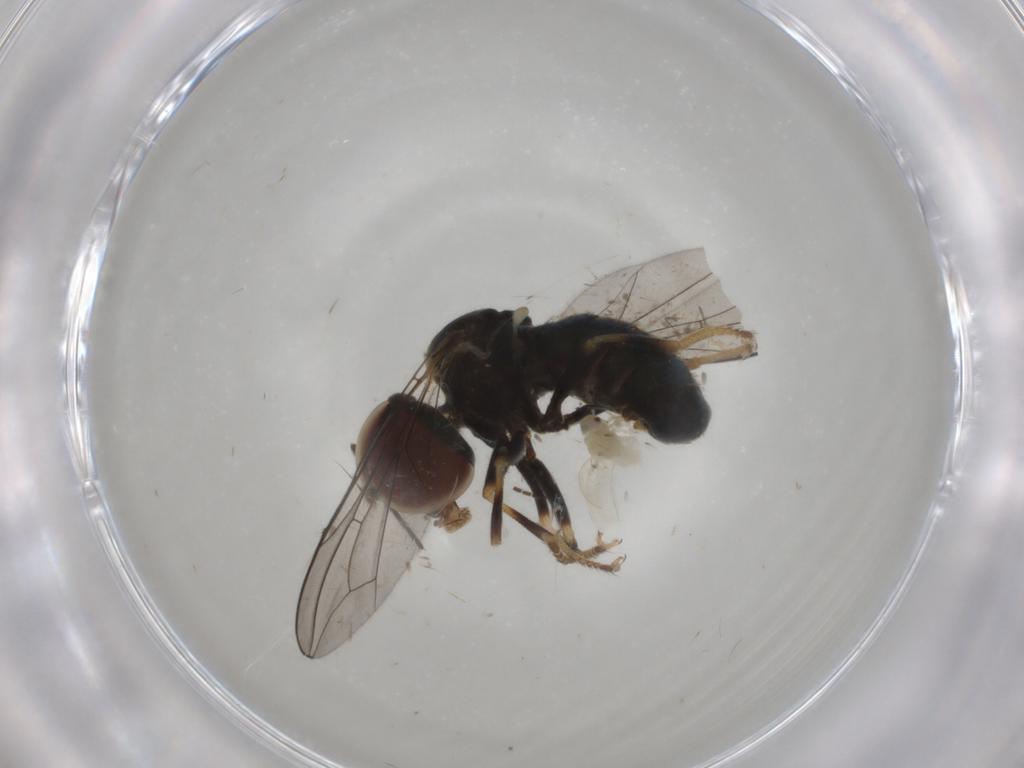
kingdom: Animalia
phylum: Arthropoda
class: Insecta
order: Diptera
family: Pipunculidae
